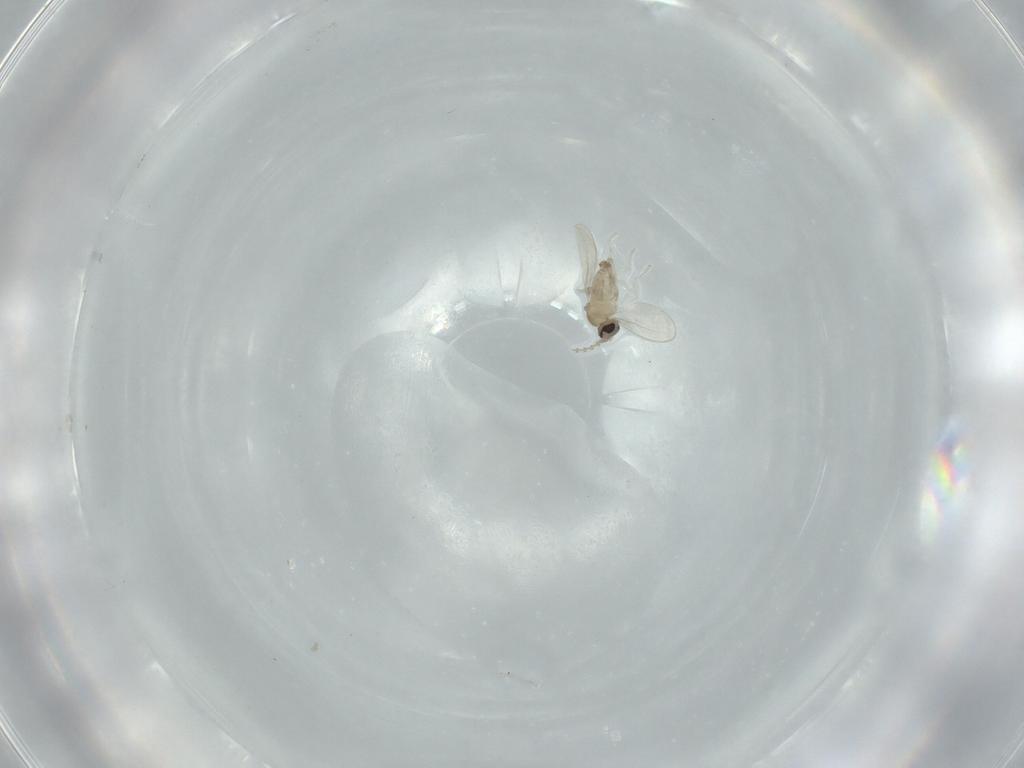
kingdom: Animalia
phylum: Arthropoda
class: Insecta
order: Diptera
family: Cecidomyiidae
